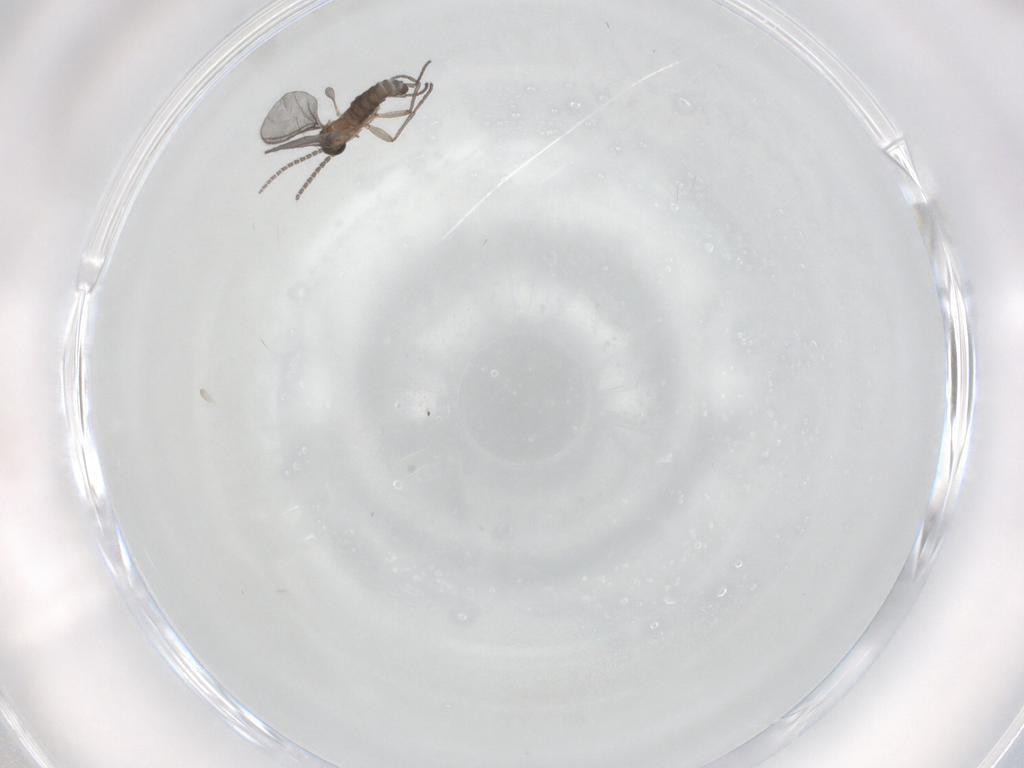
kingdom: Animalia
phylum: Arthropoda
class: Insecta
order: Diptera
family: Sciaridae
